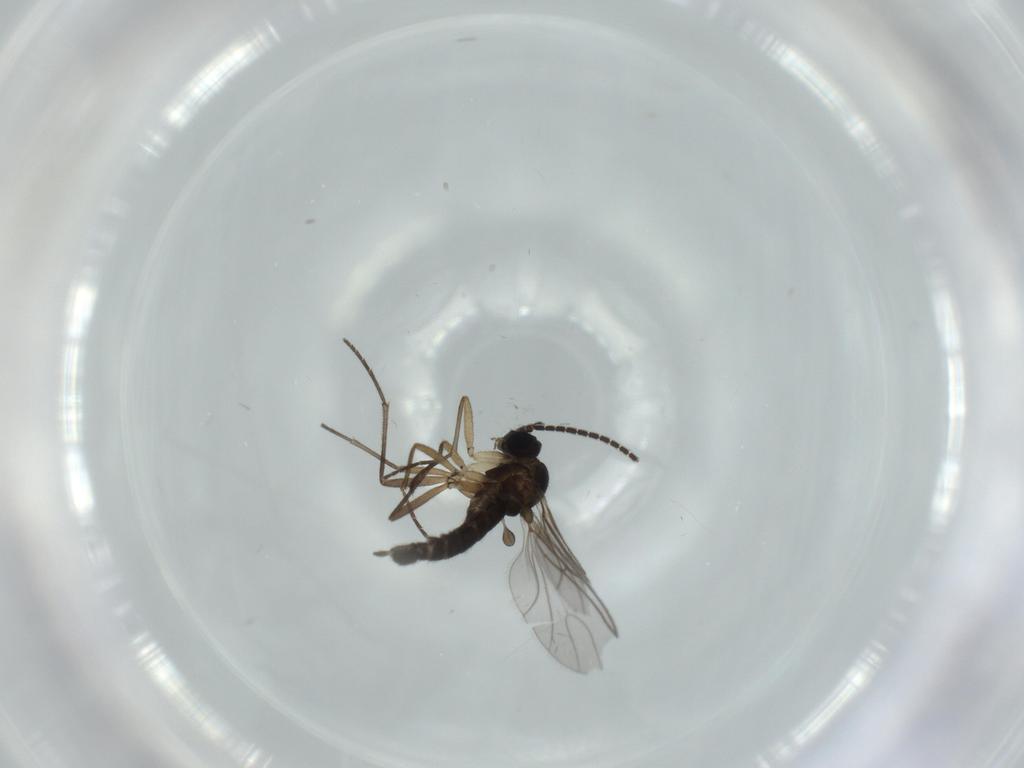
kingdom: Animalia
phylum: Arthropoda
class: Insecta
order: Diptera
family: Sciaridae
